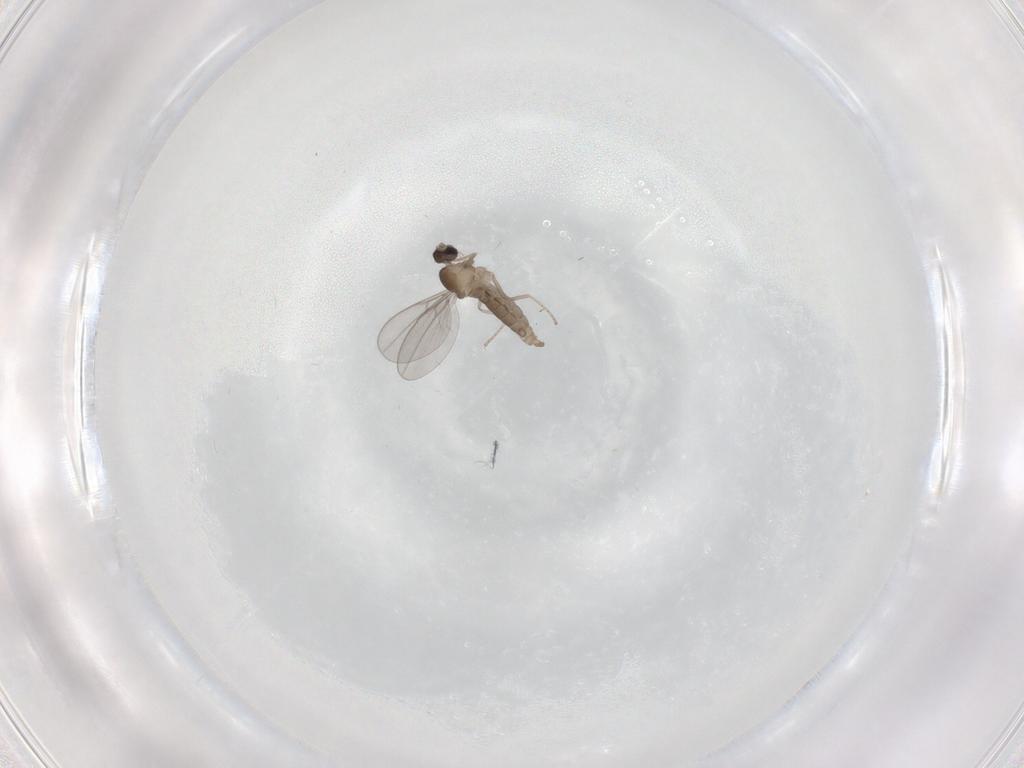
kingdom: Animalia
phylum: Arthropoda
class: Insecta
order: Diptera
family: Cecidomyiidae
